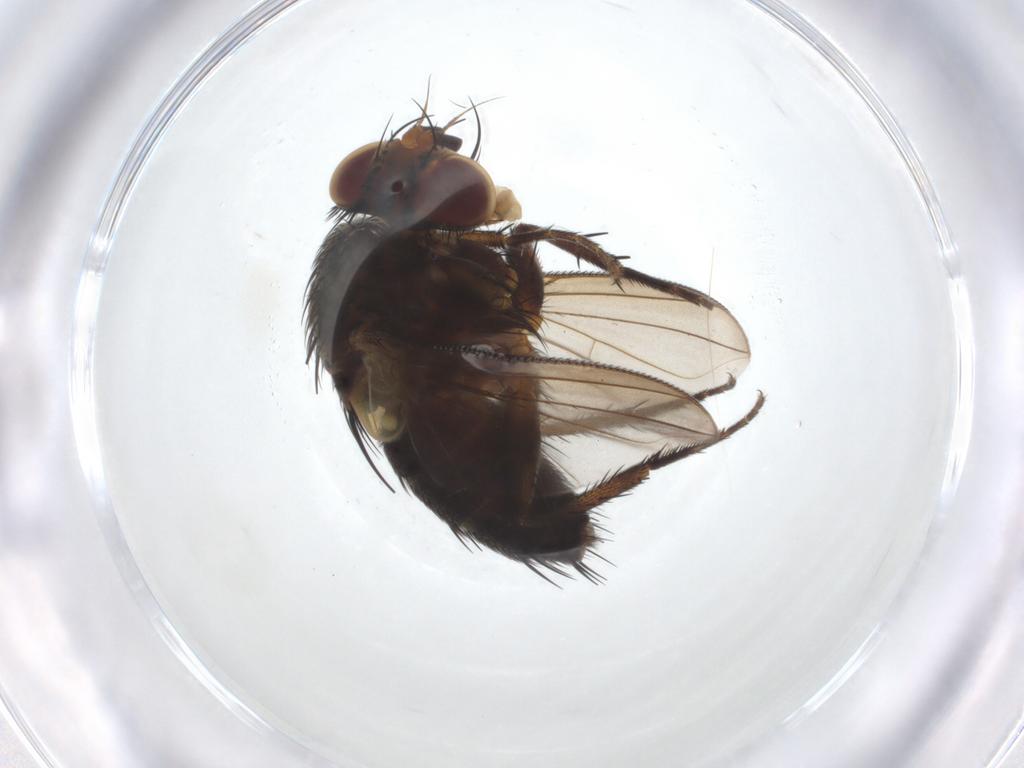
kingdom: Animalia
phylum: Arthropoda
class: Insecta
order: Diptera
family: Tachinidae
